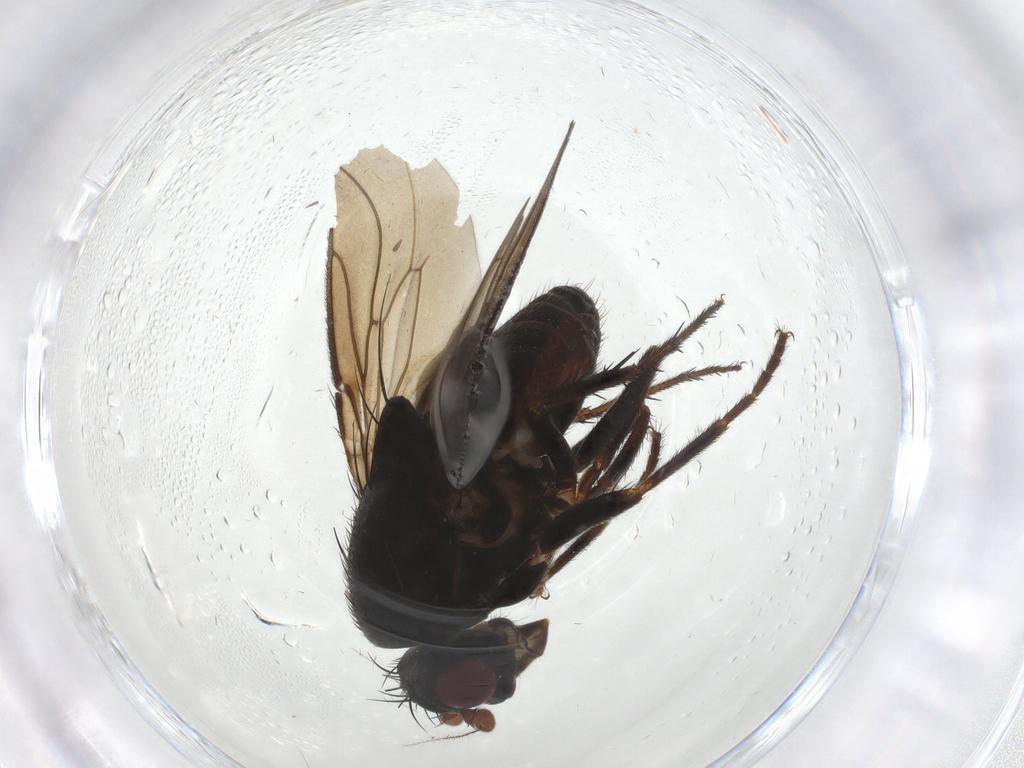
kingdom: Animalia
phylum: Arthropoda
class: Insecta
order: Diptera
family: Sphaeroceridae
